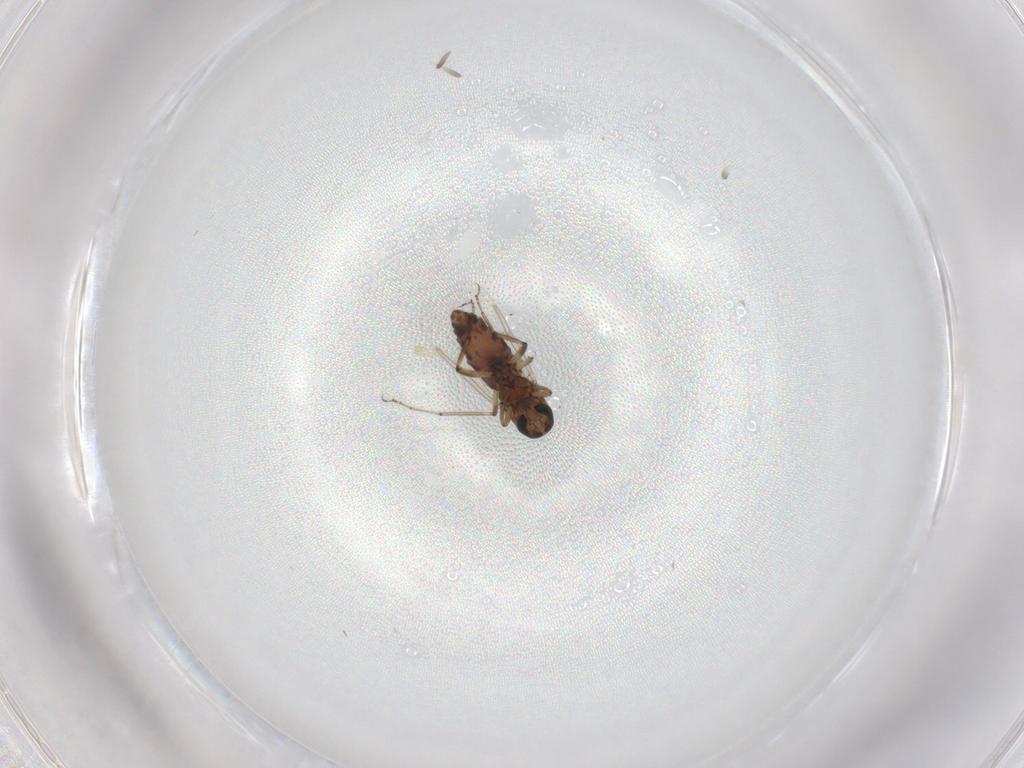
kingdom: Animalia
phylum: Arthropoda
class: Insecta
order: Diptera
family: Ceratopogonidae
